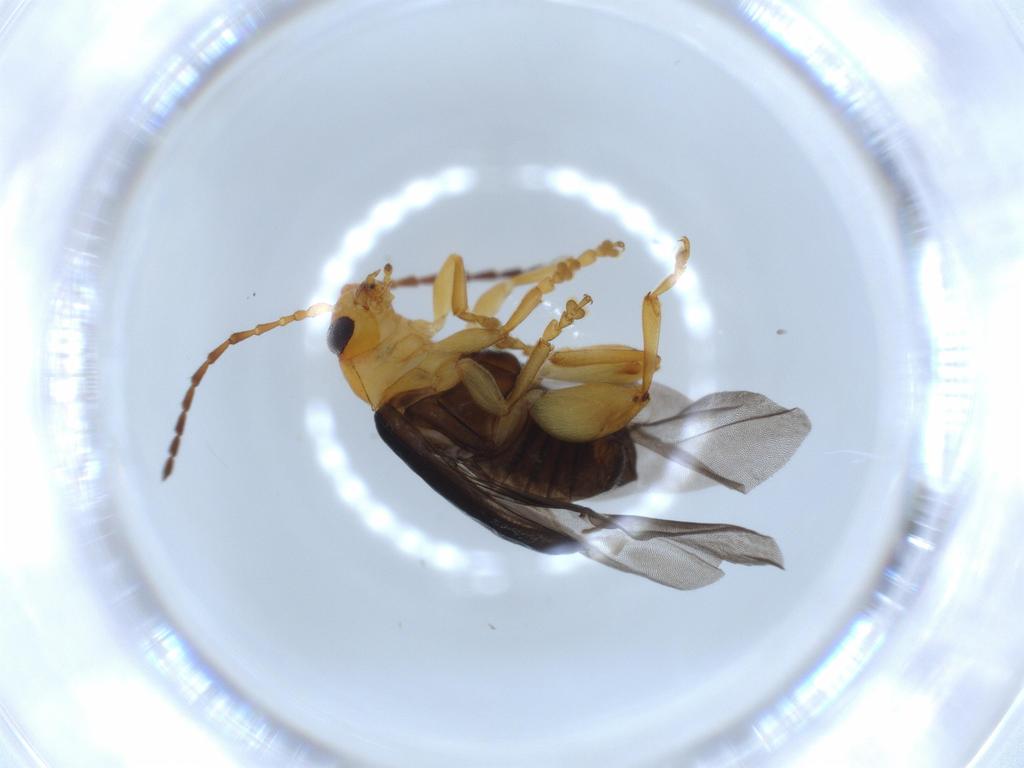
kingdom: Animalia
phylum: Arthropoda
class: Insecta
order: Coleoptera
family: Chrysomelidae
